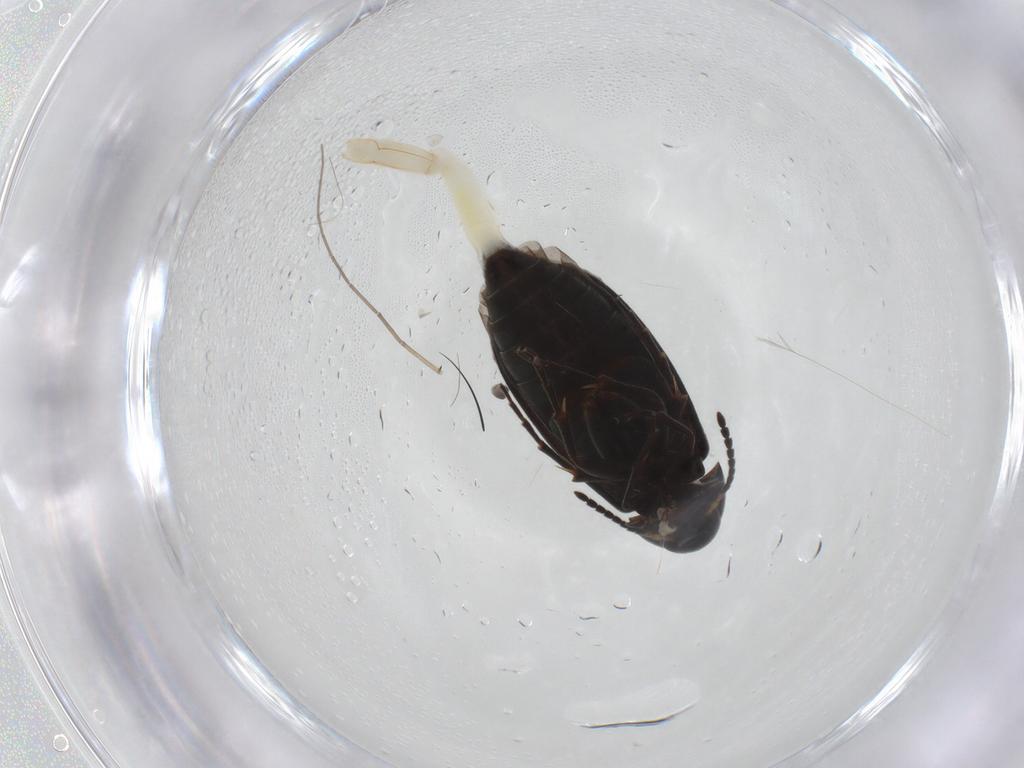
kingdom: Animalia
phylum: Arthropoda
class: Insecta
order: Coleoptera
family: Scraptiidae
